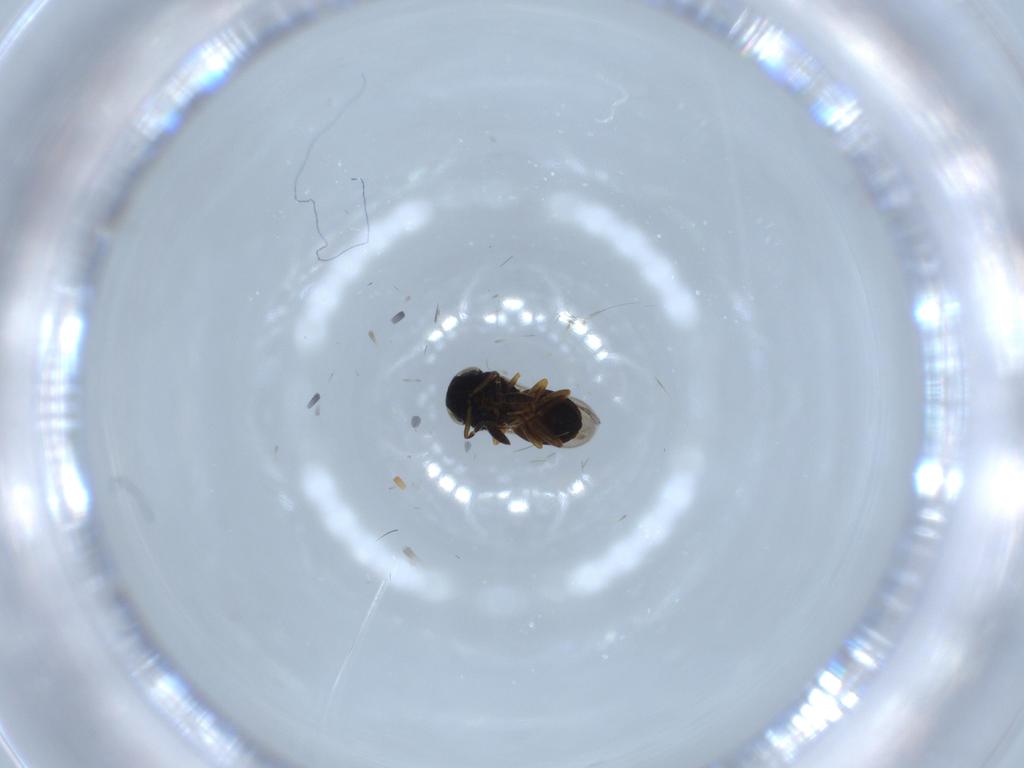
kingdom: Animalia
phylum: Arthropoda
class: Insecta
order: Hymenoptera
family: Scelionidae
